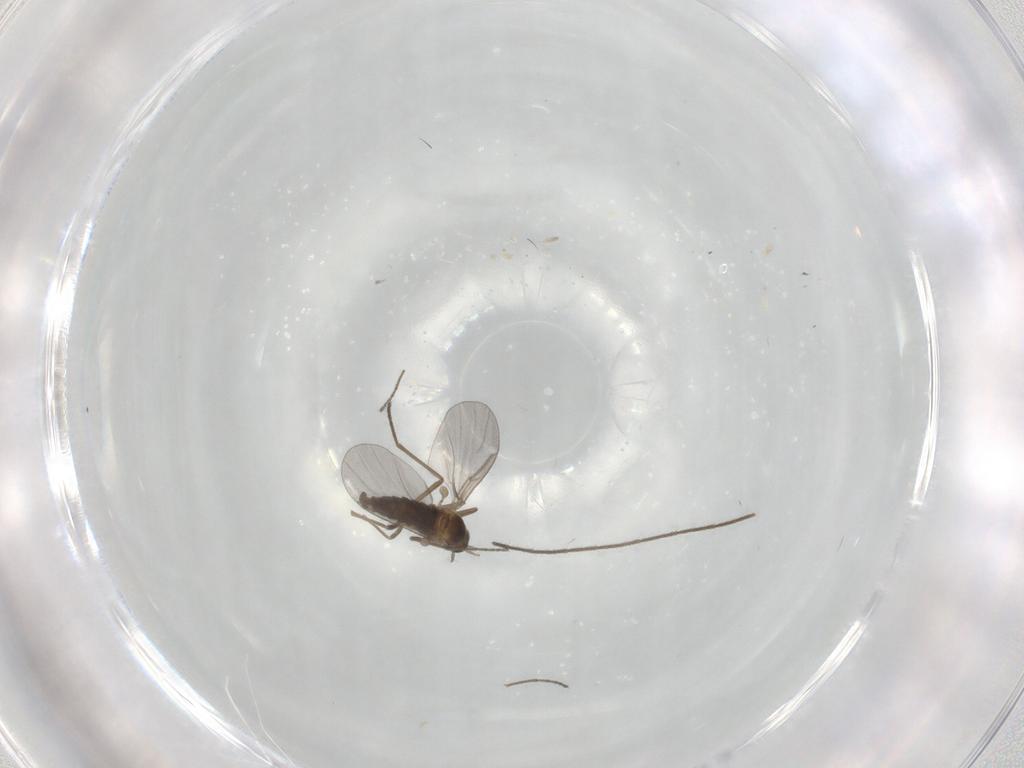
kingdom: Animalia
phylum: Arthropoda
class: Insecta
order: Diptera
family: Cecidomyiidae
